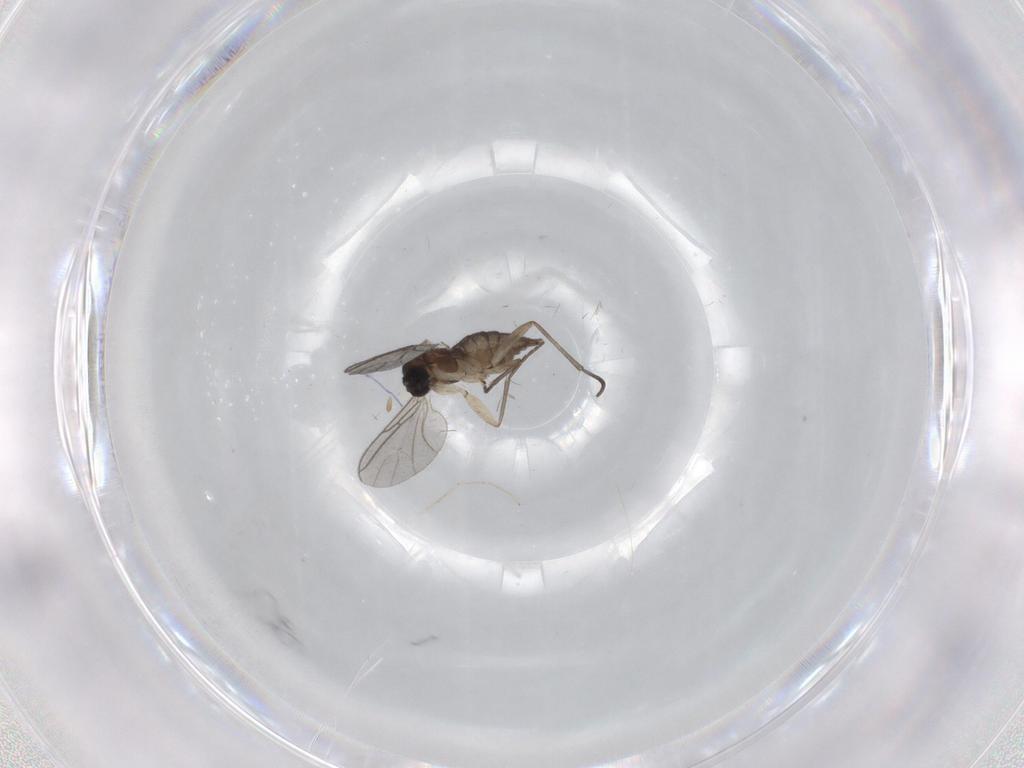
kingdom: Animalia
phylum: Arthropoda
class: Insecta
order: Diptera
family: Sciaridae
